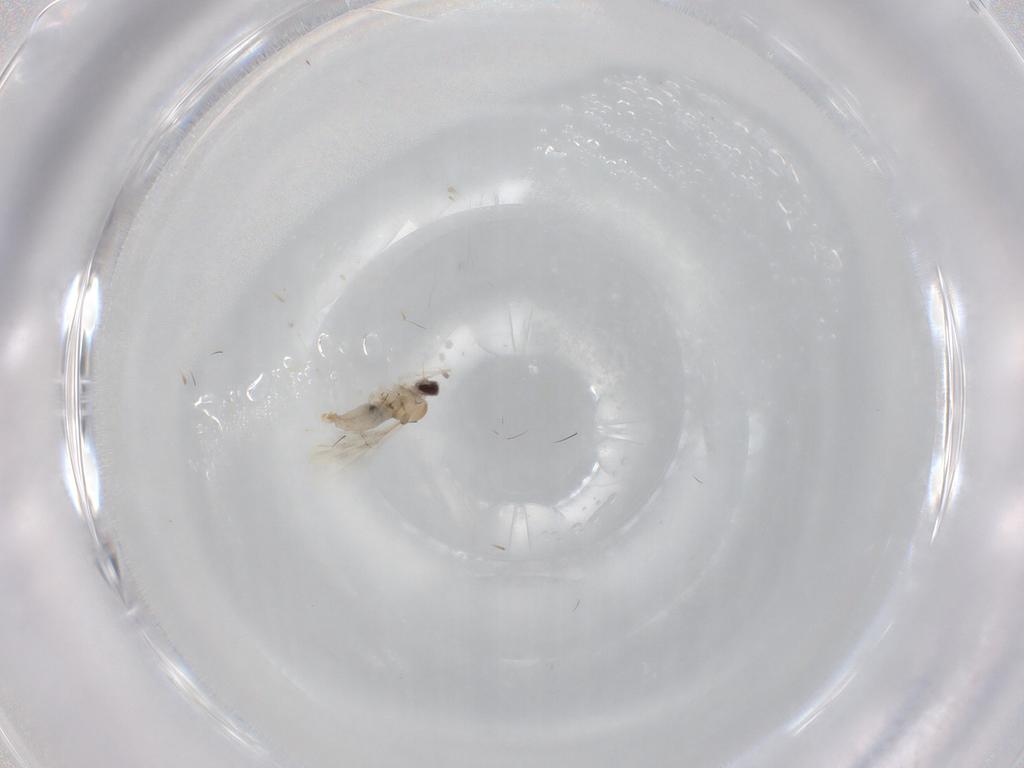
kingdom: Animalia
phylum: Arthropoda
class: Insecta
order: Diptera
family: Cecidomyiidae
